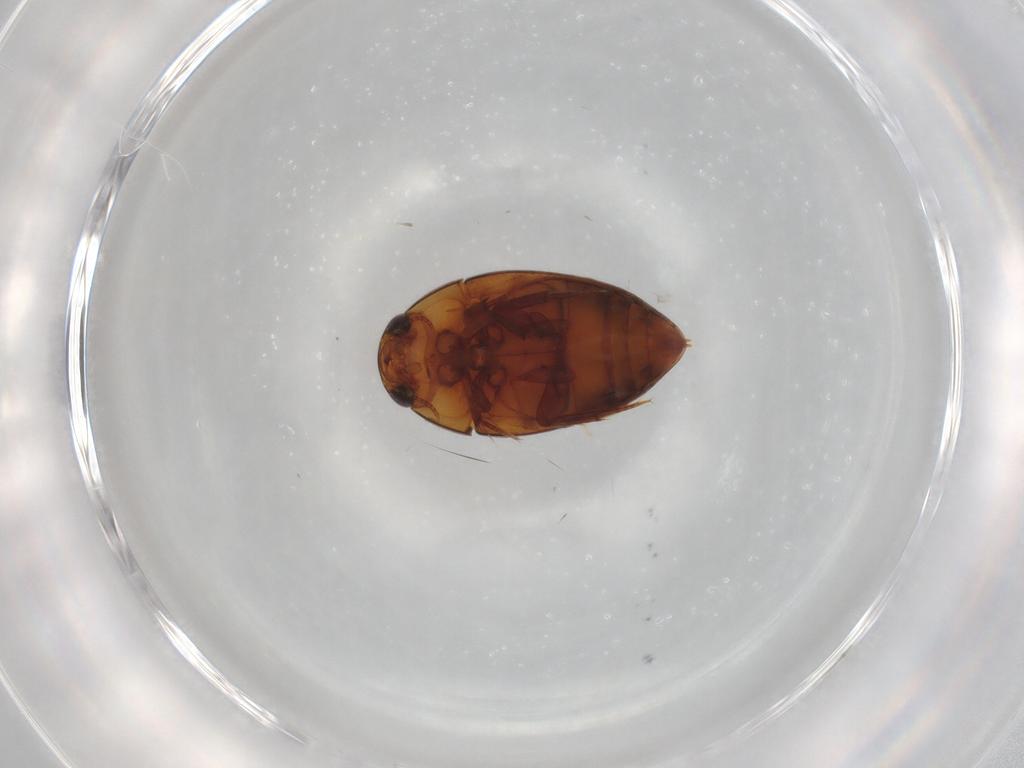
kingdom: Animalia
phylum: Arthropoda
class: Insecta
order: Coleoptera
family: Noteridae
